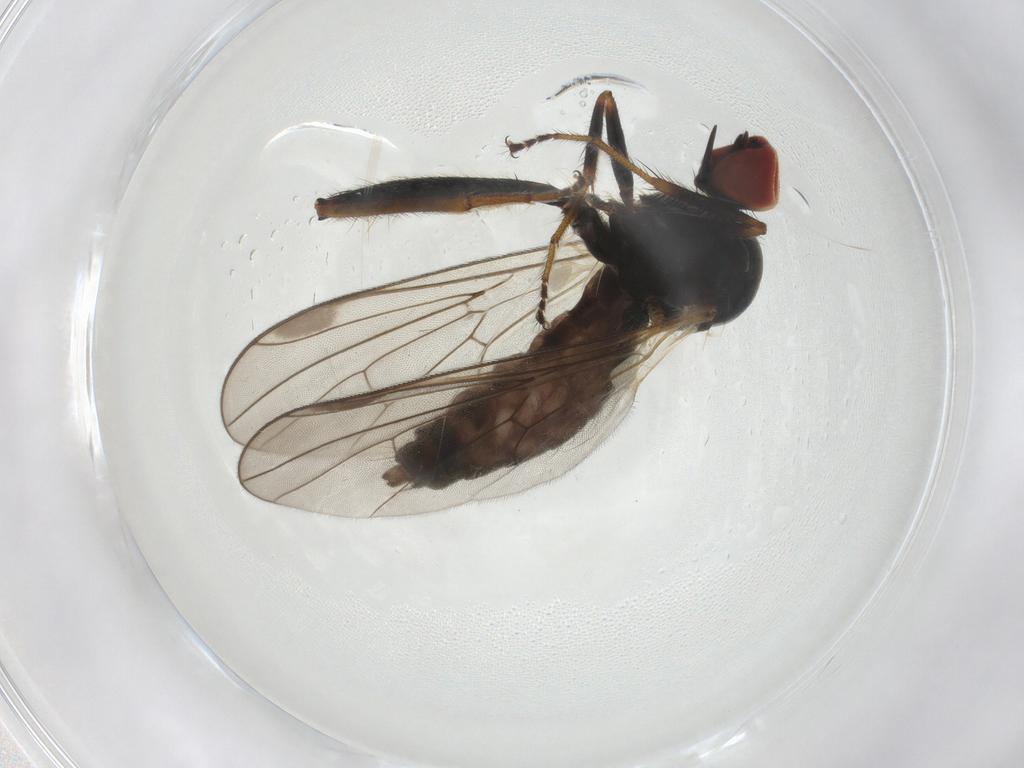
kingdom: Animalia
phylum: Arthropoda
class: Insecta
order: Diptera
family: Stratiomyidae
